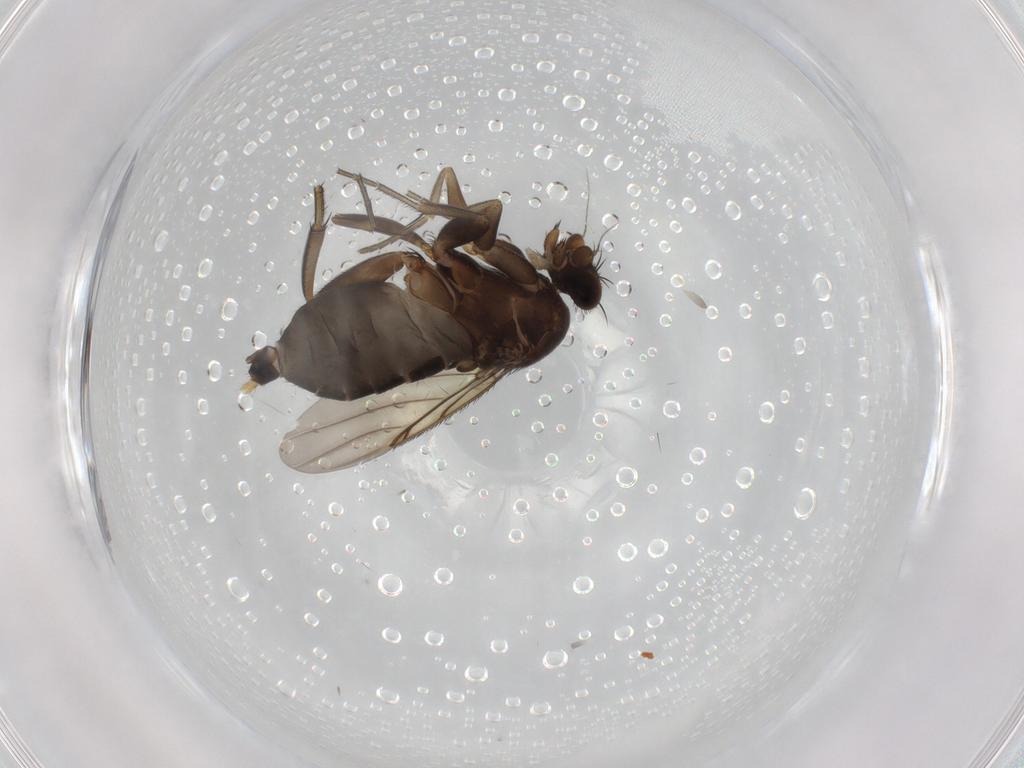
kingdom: Animalia
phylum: Arthropoda
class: Insecta
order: Diptera
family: Phoridae
